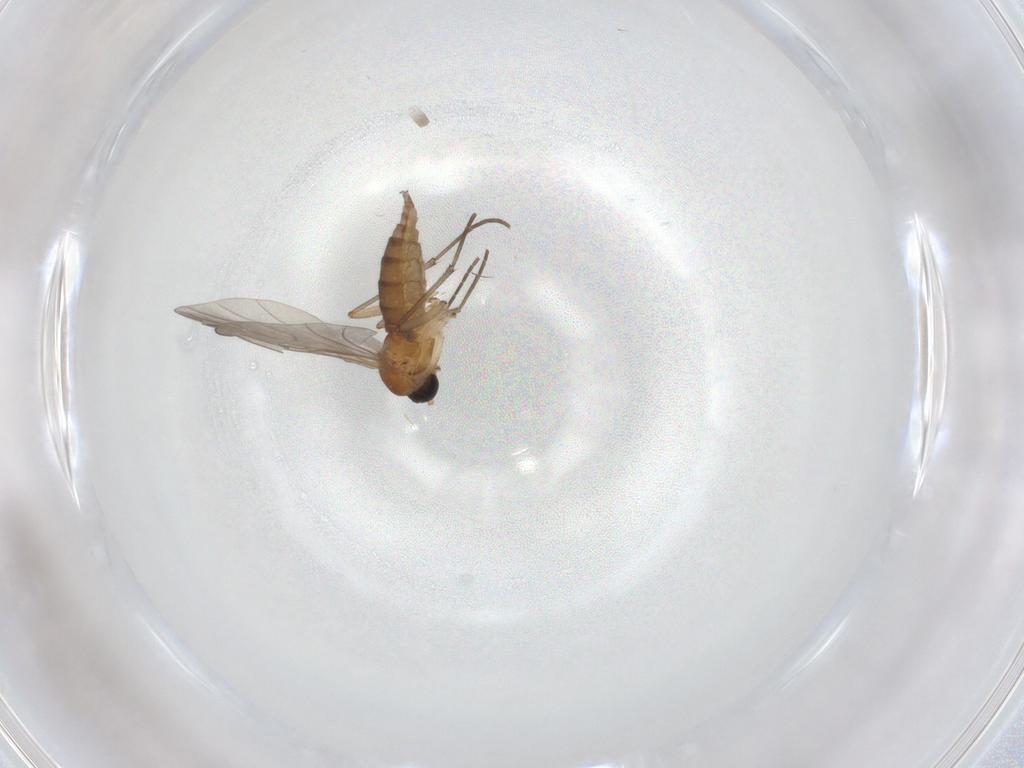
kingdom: Animalia
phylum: Arthropoda
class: Insecta
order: Diptera
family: Sciaridae
